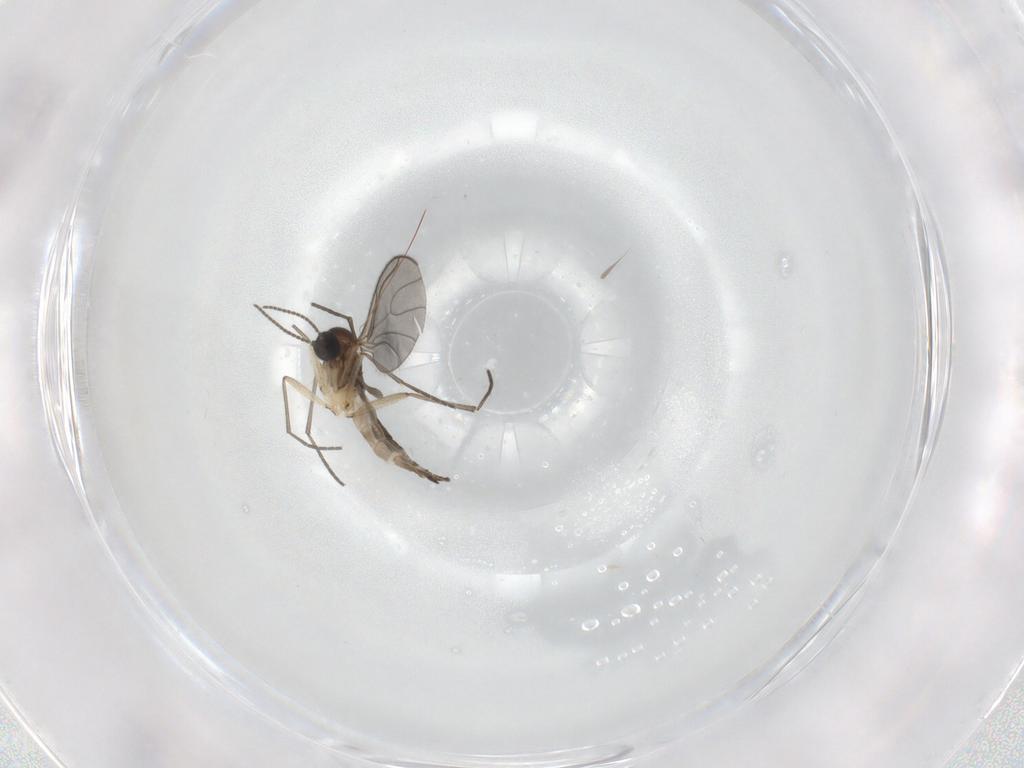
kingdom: Animalia
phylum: Arthropoda
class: Insecta
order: Diptera
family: Sciaridae
